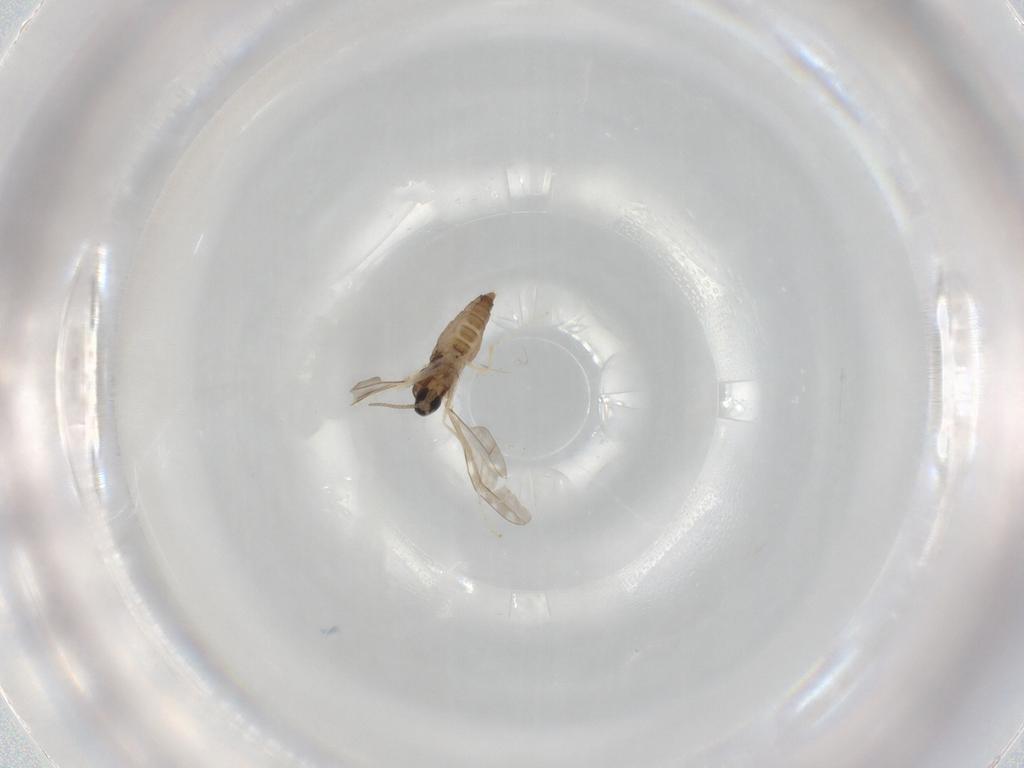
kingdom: Animalia
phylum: Arthropoda
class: Insecta
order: Diptera
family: Cecidomyiidae
